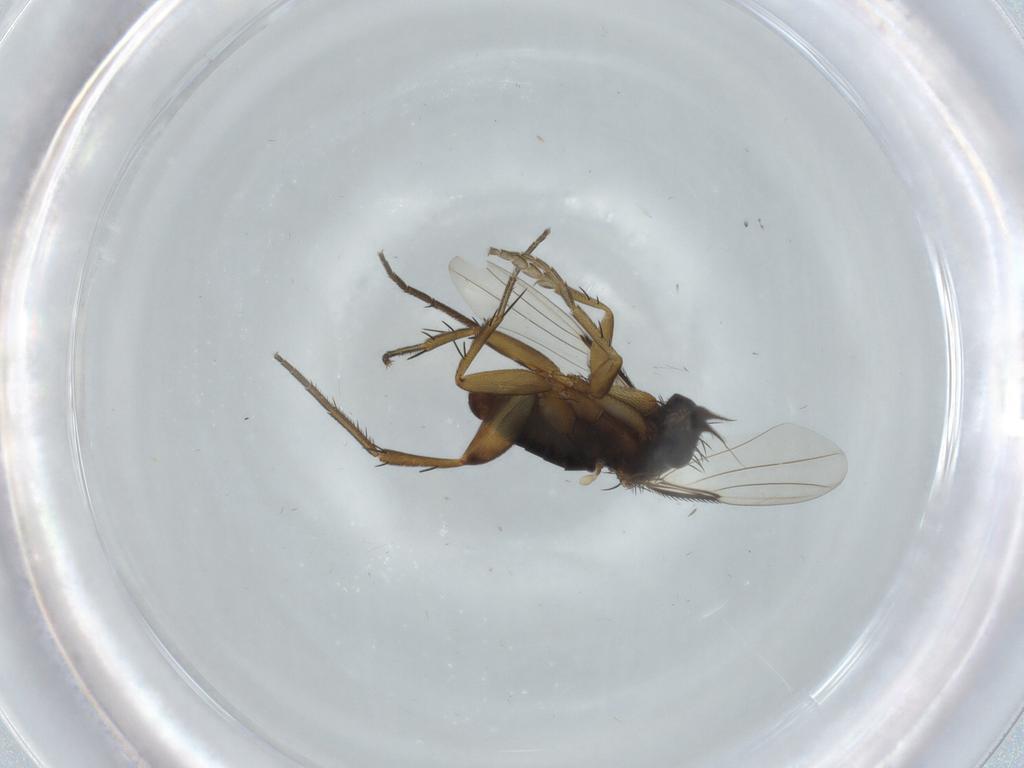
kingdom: Animalia
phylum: Arthropoda
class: Insecta
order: Diptera
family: Phoridae
